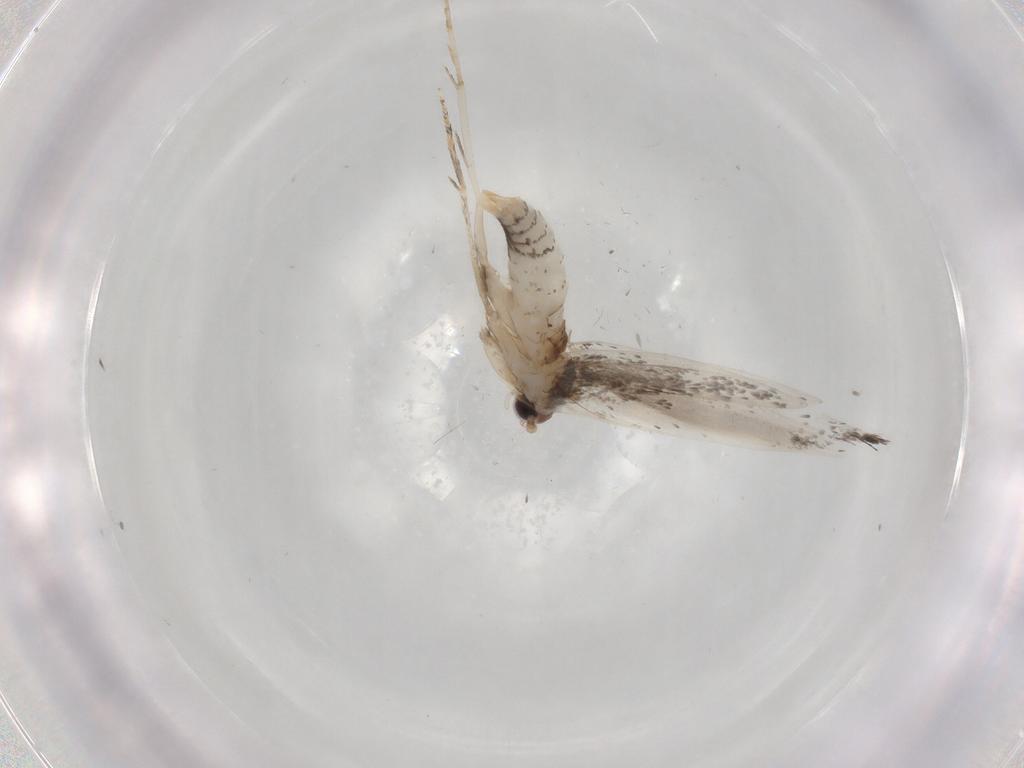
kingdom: Animalia
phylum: Arthropoda
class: Insecta
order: Lepidoptera
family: Tineidae
